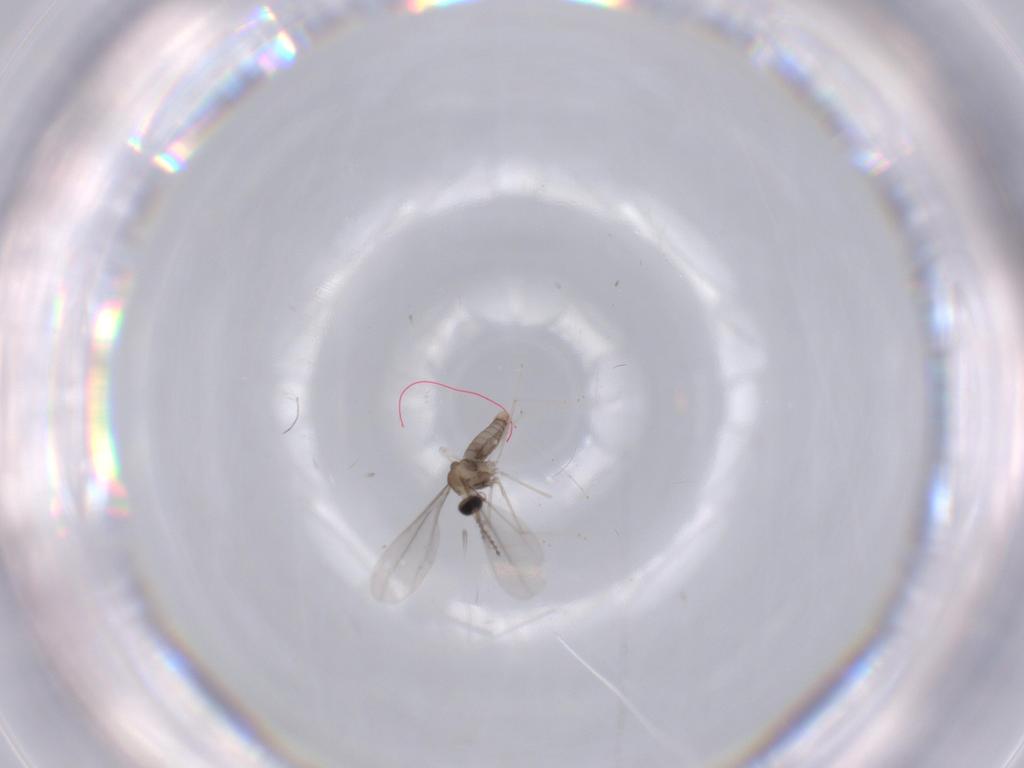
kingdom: Animalia
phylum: Arthropoda
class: Insecta
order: Diptera
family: Cecidomyiidae
